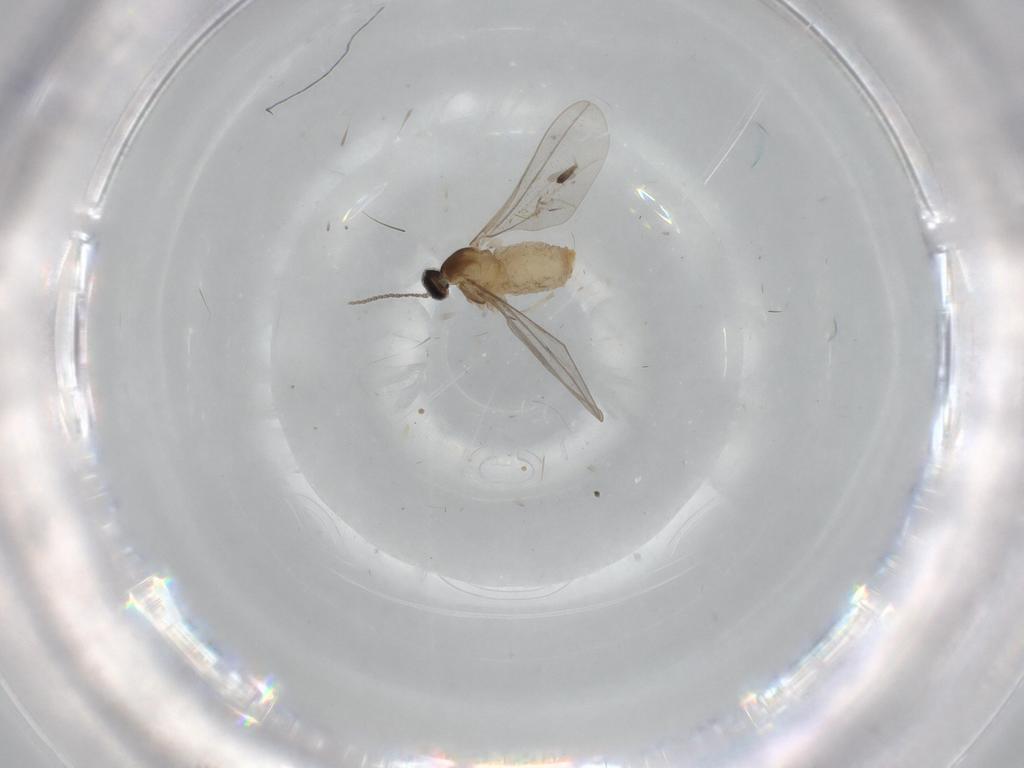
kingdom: Animalia
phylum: Arthropoda
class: Insecta
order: Diptera
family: Cecidomyiidae
